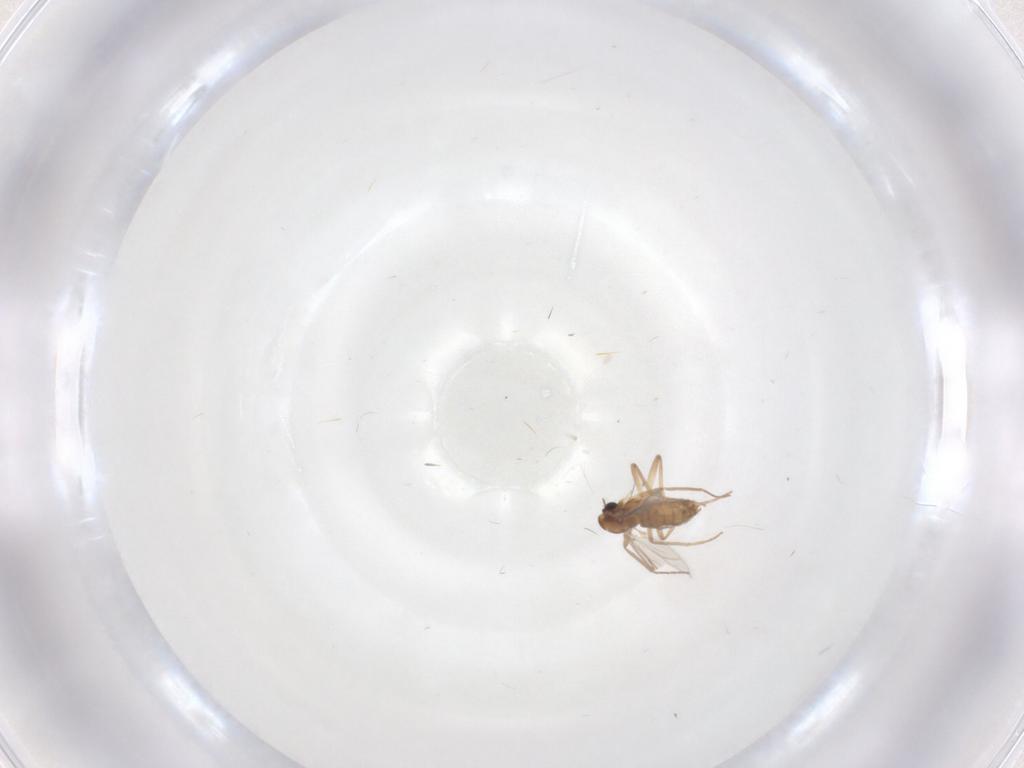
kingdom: Animalia
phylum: Arthropoda
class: Insecta
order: Diptera
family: Chironomidae
